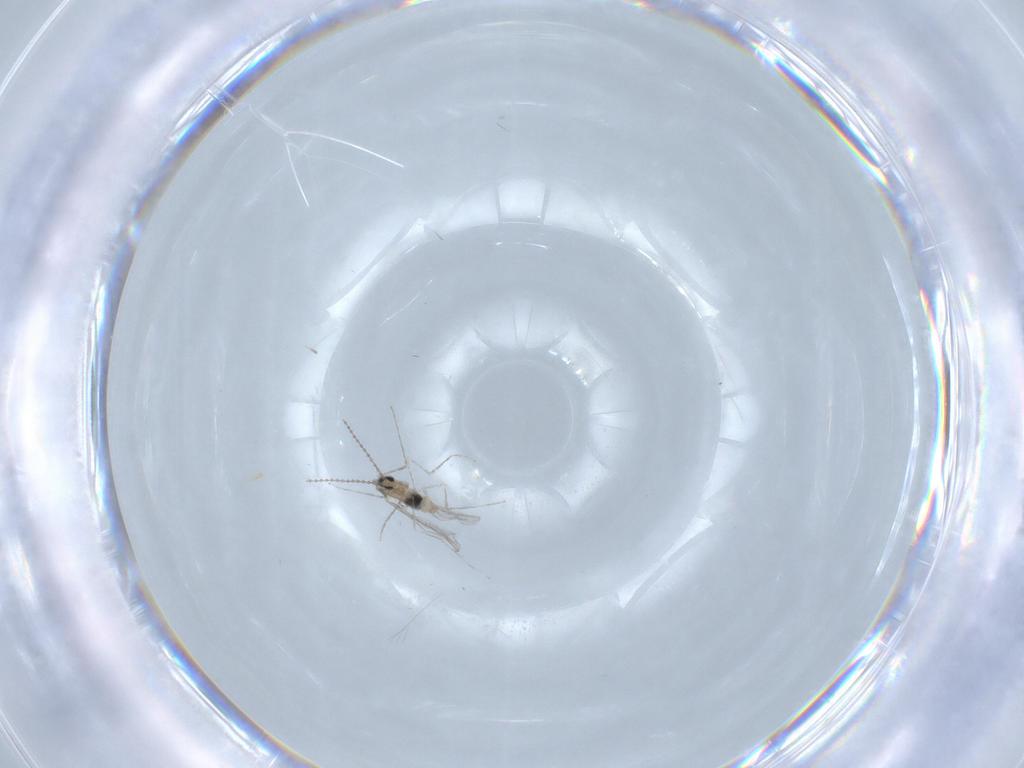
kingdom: Animalia
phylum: Arthropoda
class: Insecta
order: Diptera
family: Cecidomyiidae
